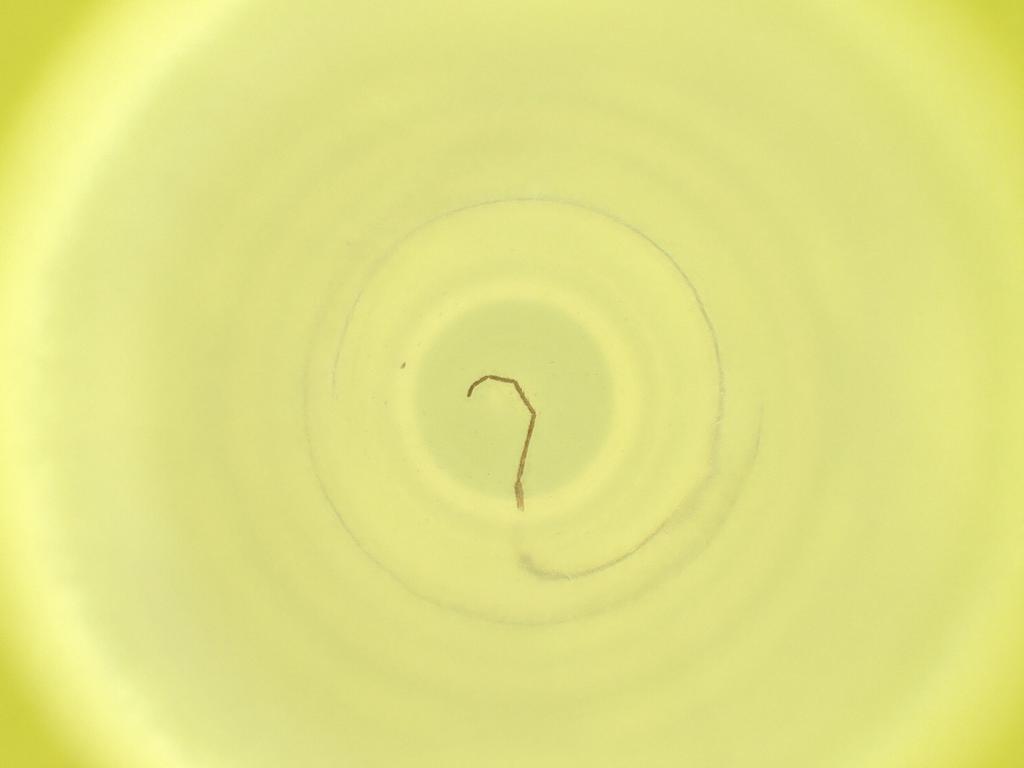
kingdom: Animalia
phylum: Arthropoda
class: Insecta
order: Diptera
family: Cecidomyiidae
